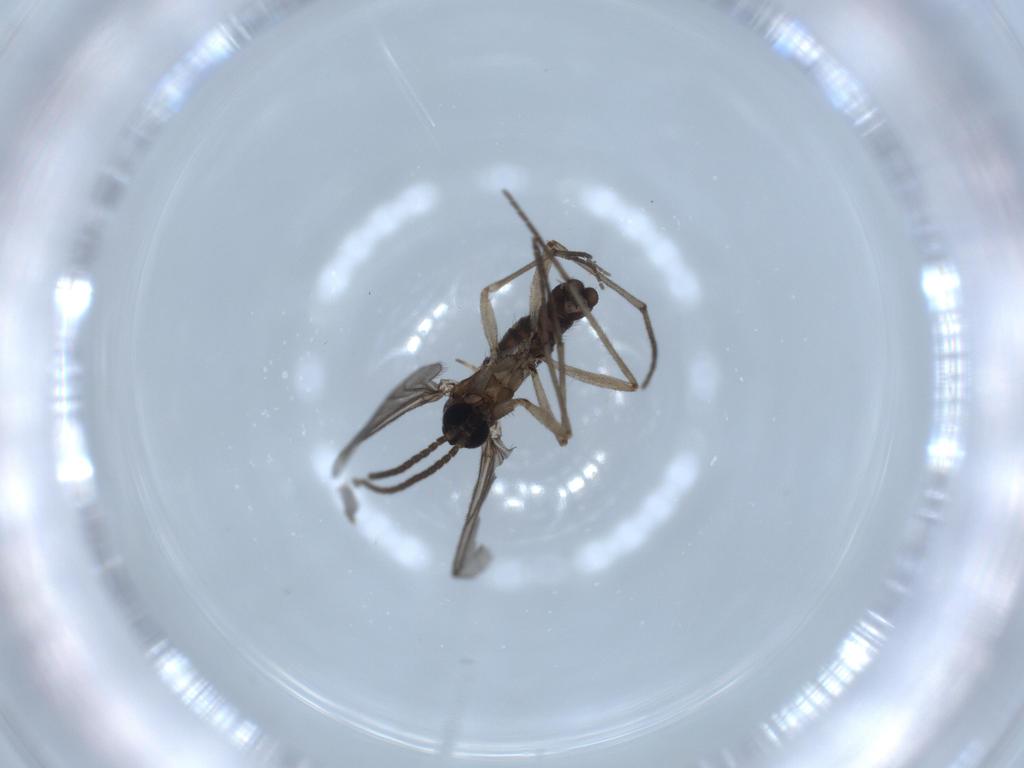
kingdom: Animalia
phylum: Arthropoda
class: Insecta
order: Diptera
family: Sciaridae
